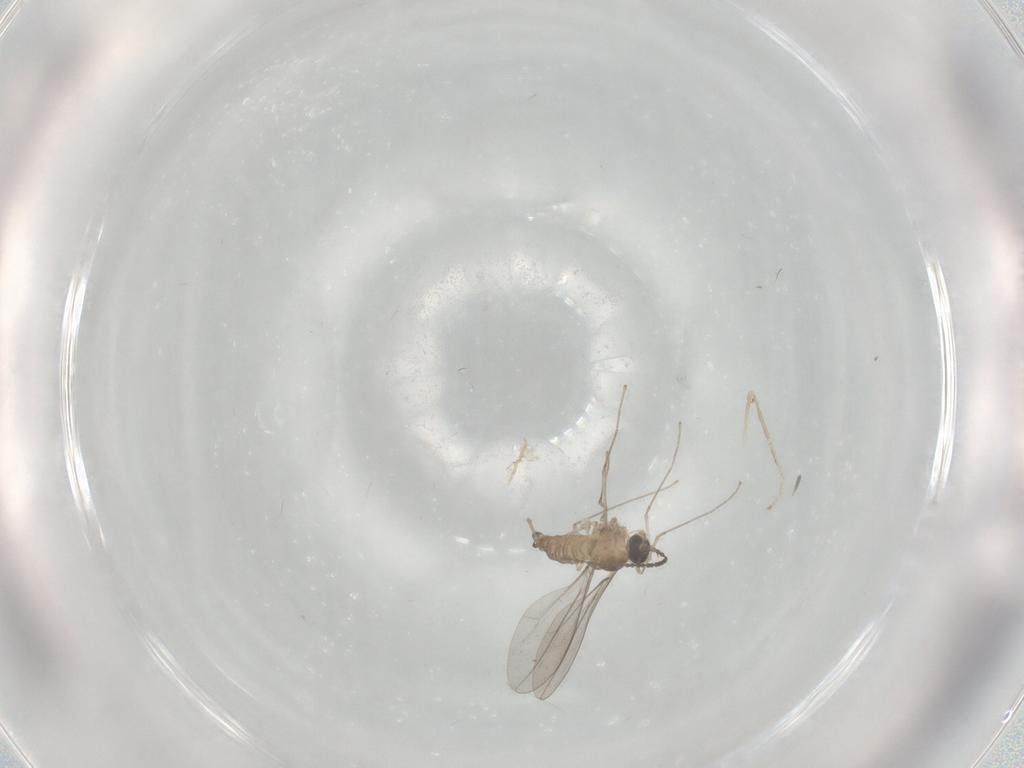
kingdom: Animalia
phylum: Arthropoda
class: Insecta
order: Diptera
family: Cecidomyiidae
